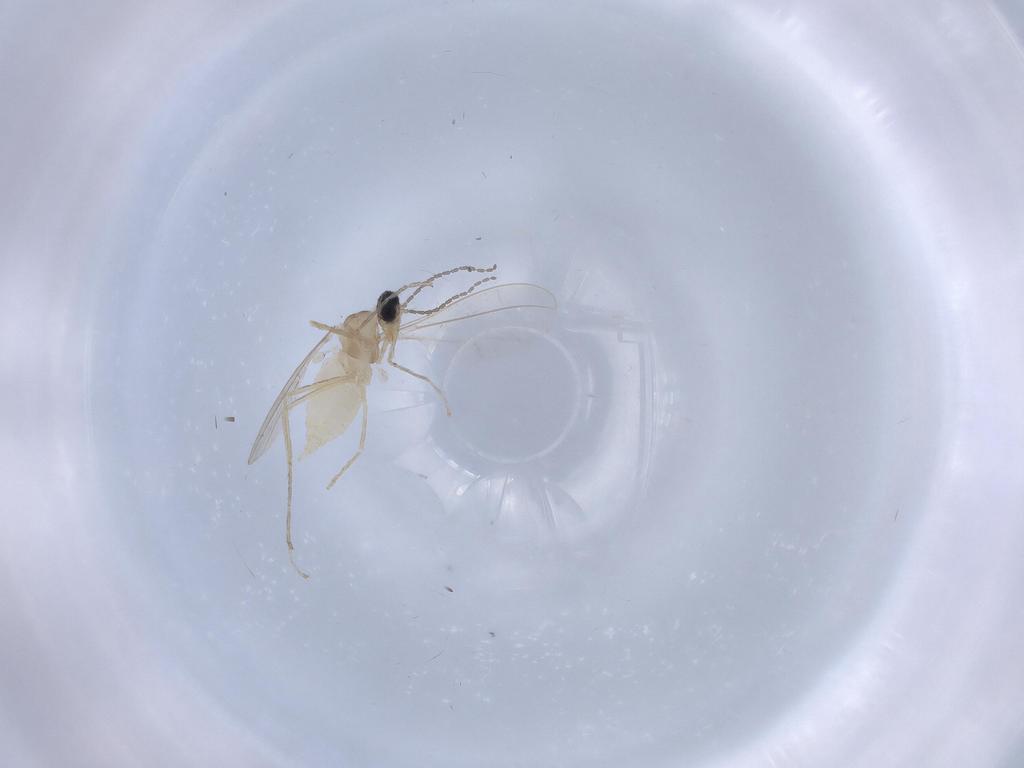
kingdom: Animalia
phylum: Arthropoda
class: Insecta
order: Diptera
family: Cecidomyiidae
